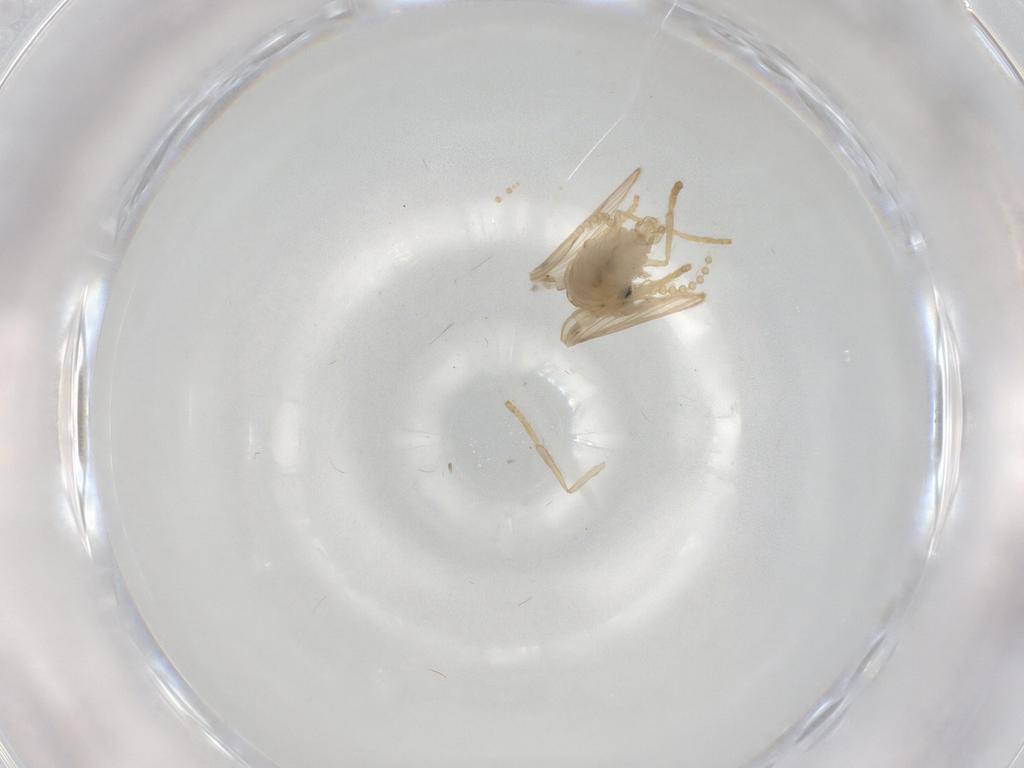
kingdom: Animalia
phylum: Arthropoda
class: Insecta
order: Diptera
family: Psychodidae
